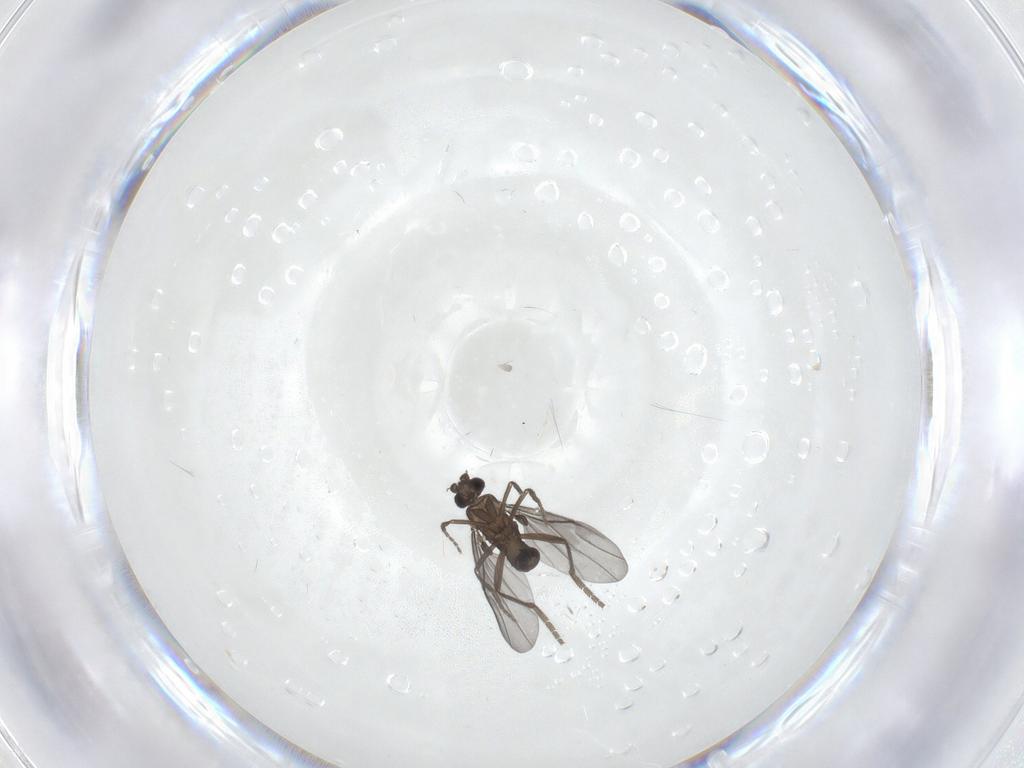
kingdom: Animalia
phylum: Arthropoda
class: Insecta
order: Diptera
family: Phoridae
